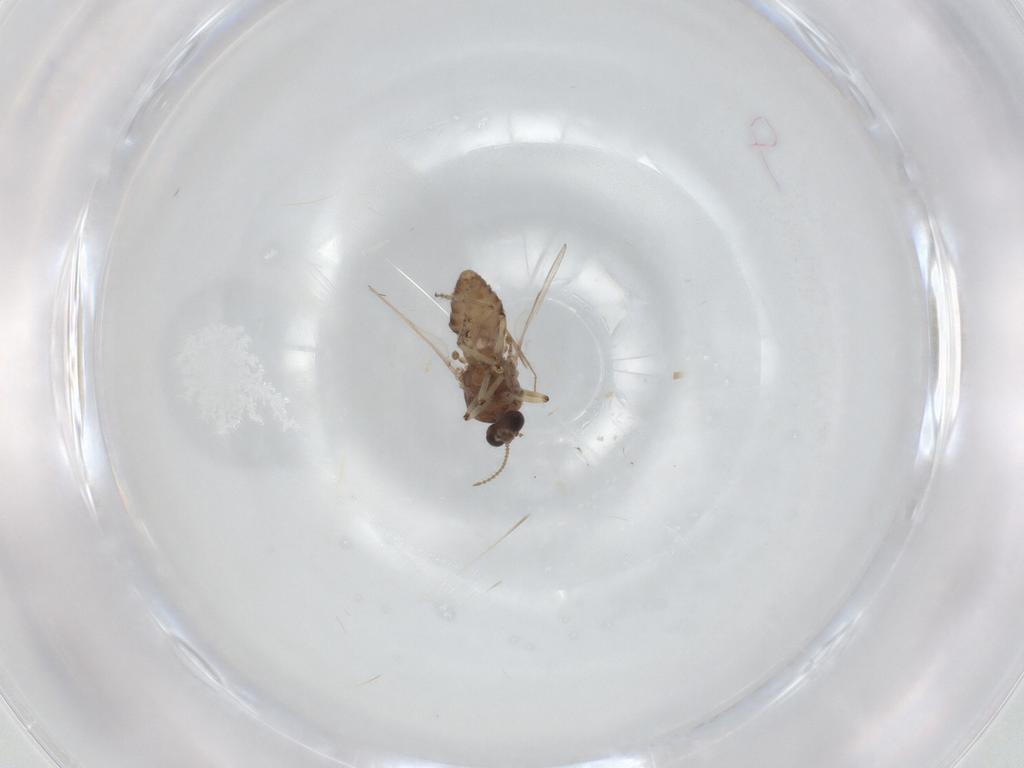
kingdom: Animalia
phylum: Arthropoda
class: Insecta
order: Diptera
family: Ceratopogonidae
